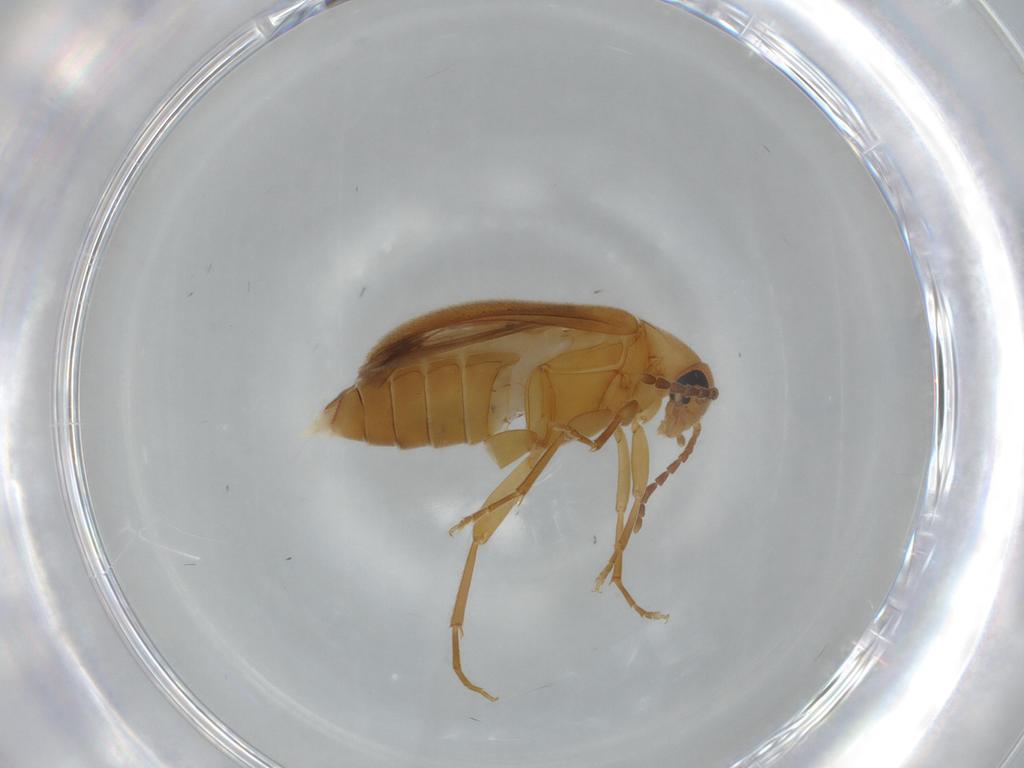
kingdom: Animalia
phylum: Arthropoda
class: Insecta
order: Coleoptera
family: Scraptiidae
